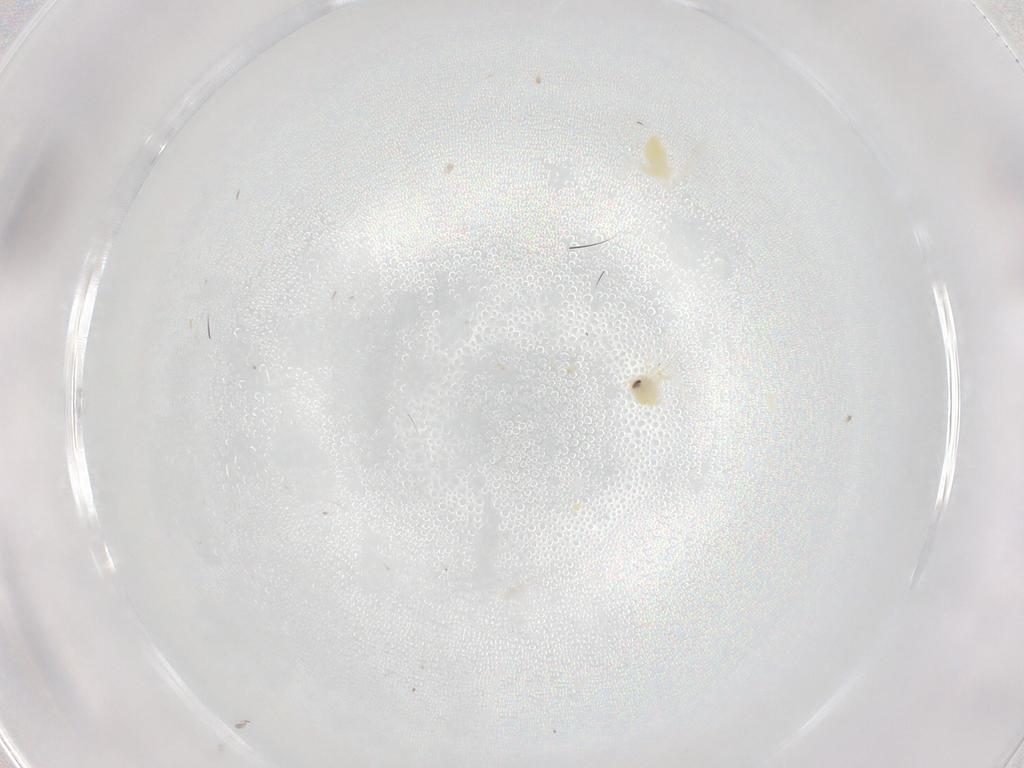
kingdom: Animalia
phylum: Arthropoda
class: Insecta
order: Hemiptera
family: Aleyrodidae
